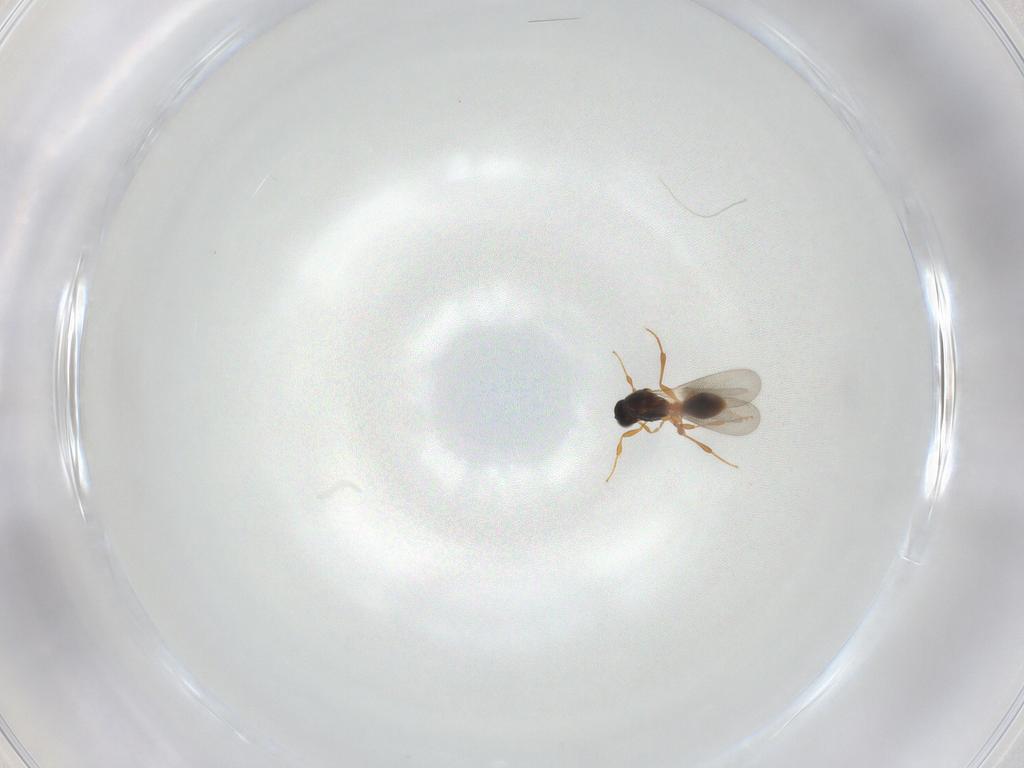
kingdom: Animalia
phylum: Arthropoda
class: Insecta
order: Hymenoptera
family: Platygastridae
